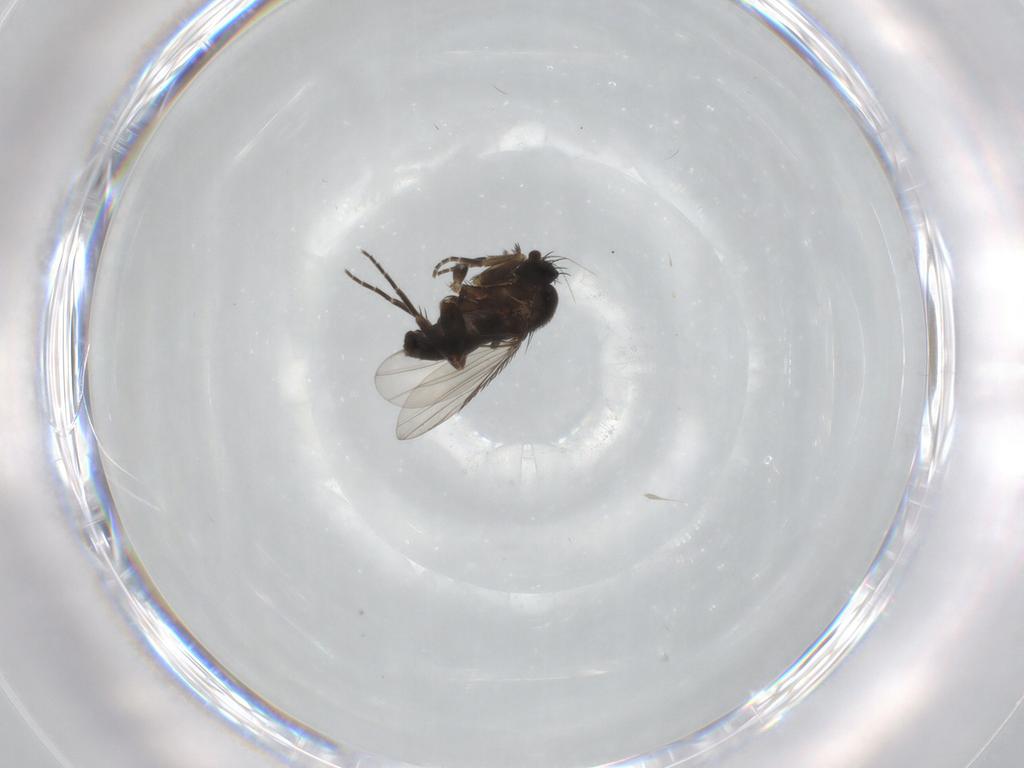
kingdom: Animalia
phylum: Arthropoda
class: Insecta
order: Diptera
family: Phoridae
